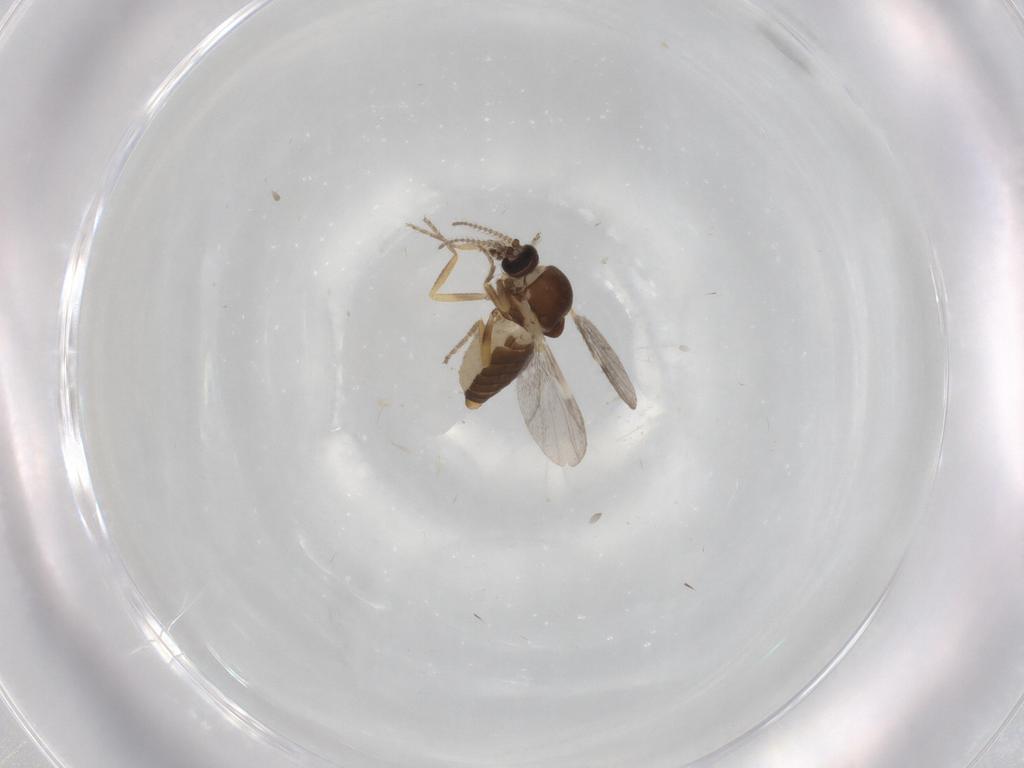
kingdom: Animalia
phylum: Arthropoda
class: Insecta
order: Diptera
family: Ceratopogonidae
